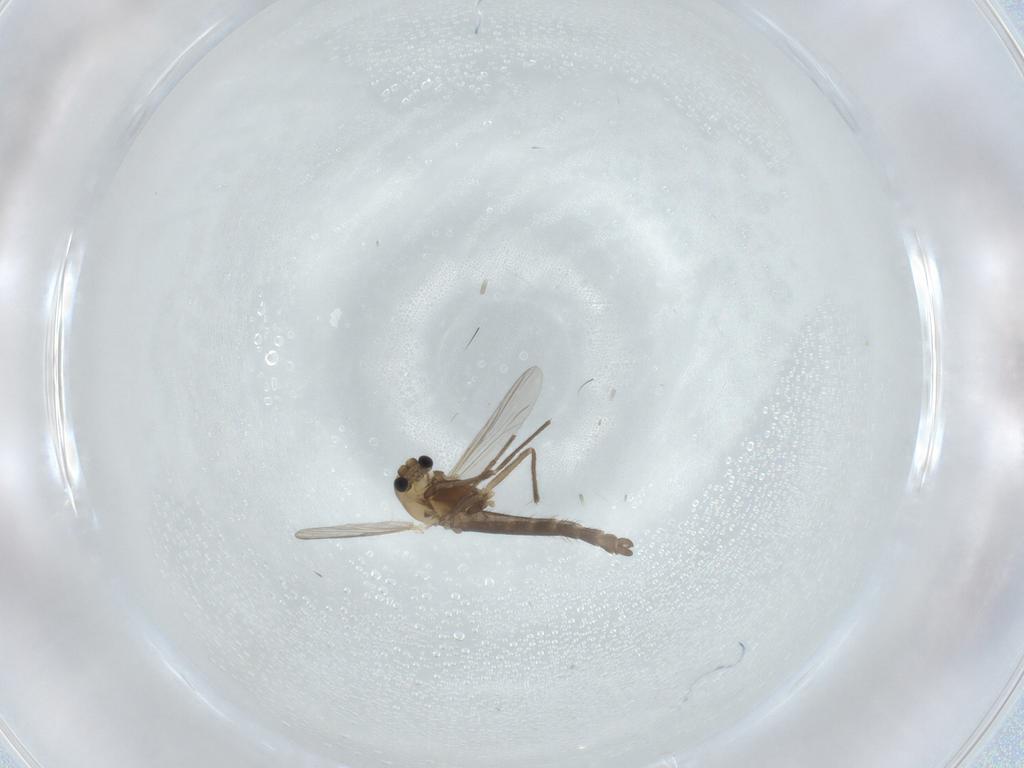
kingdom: Animalia
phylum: Arthropoda
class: Insecta
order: Diptera
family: Chironomidae
